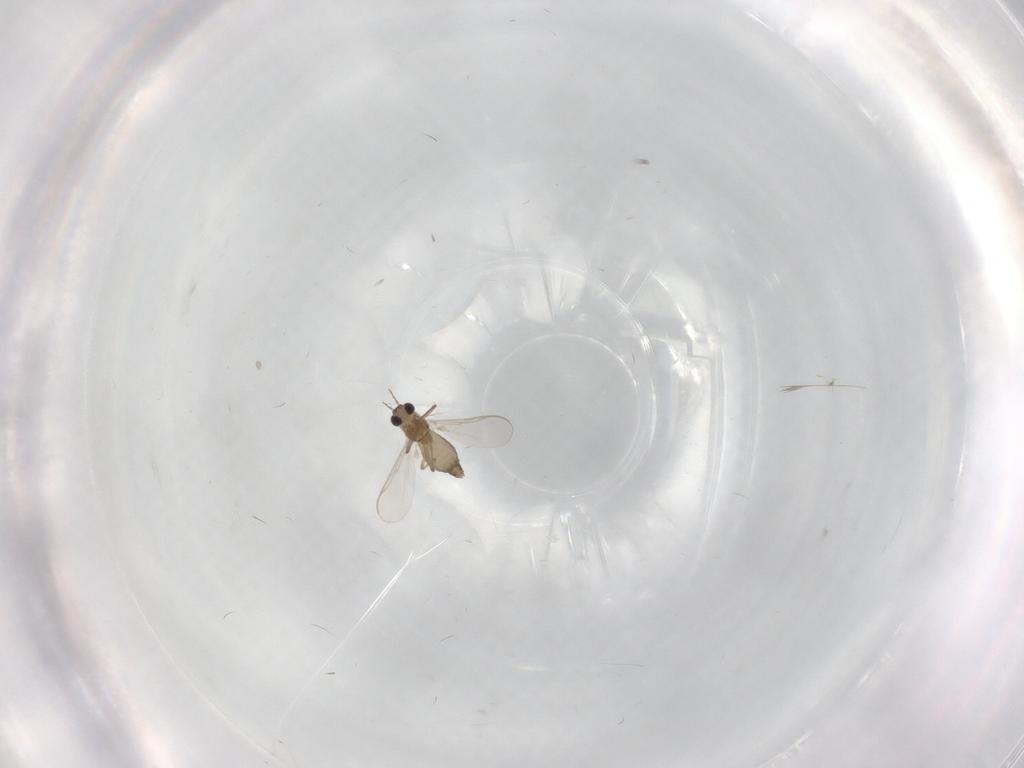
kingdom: Animalia
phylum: Arthropoda
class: Insecta
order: Diptera
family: Chironomidae
